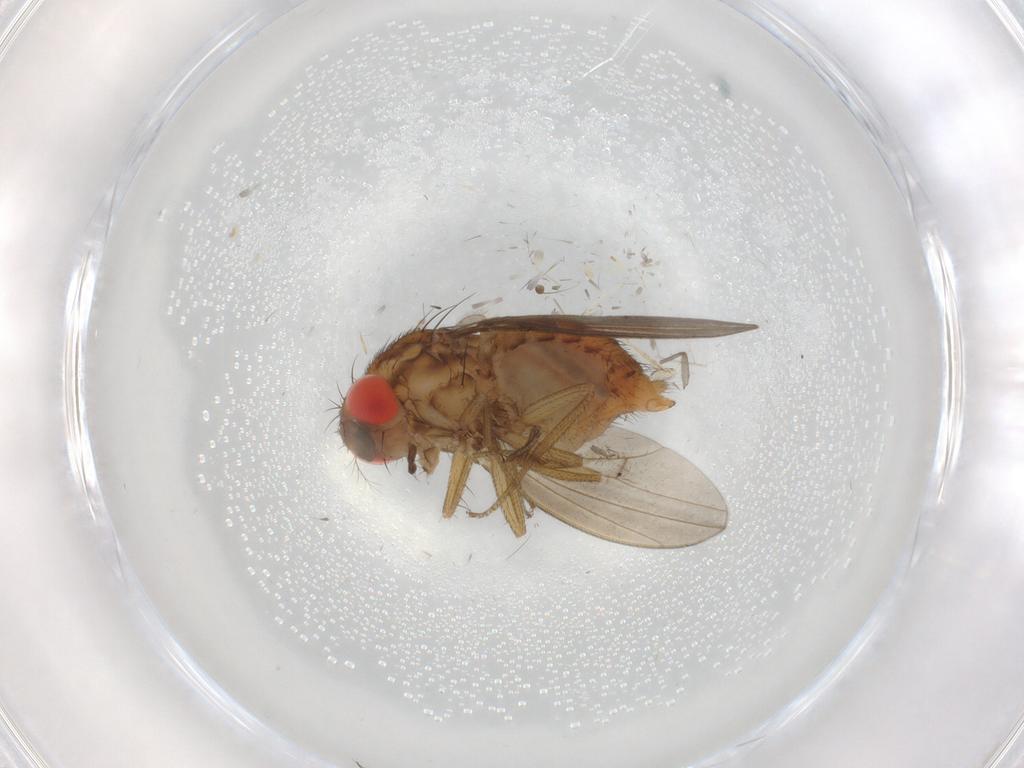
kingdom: Animalia
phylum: Arthropoda
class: Insecta
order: Diptera
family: Drosophilidae
